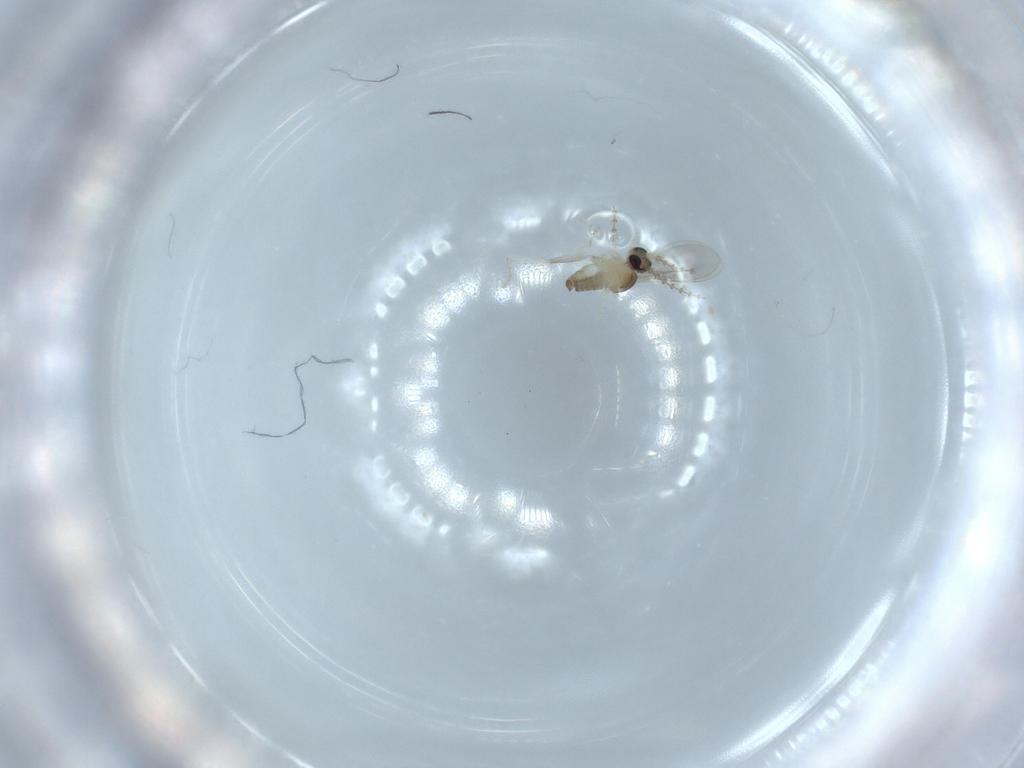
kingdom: Animalia
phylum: Arthropoda
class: Insecta
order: Diptera
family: Cecidomyiidae
